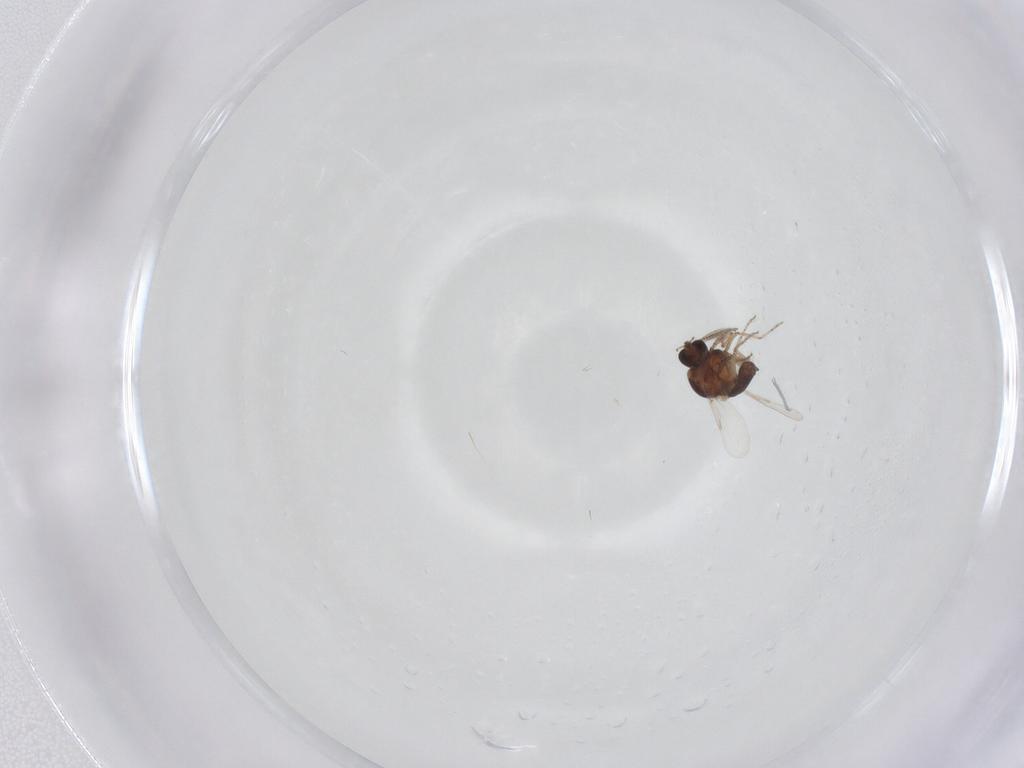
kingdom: Animalia
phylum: Arthropoda
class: Insecta
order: Diptera
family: Ceratopogonidae
